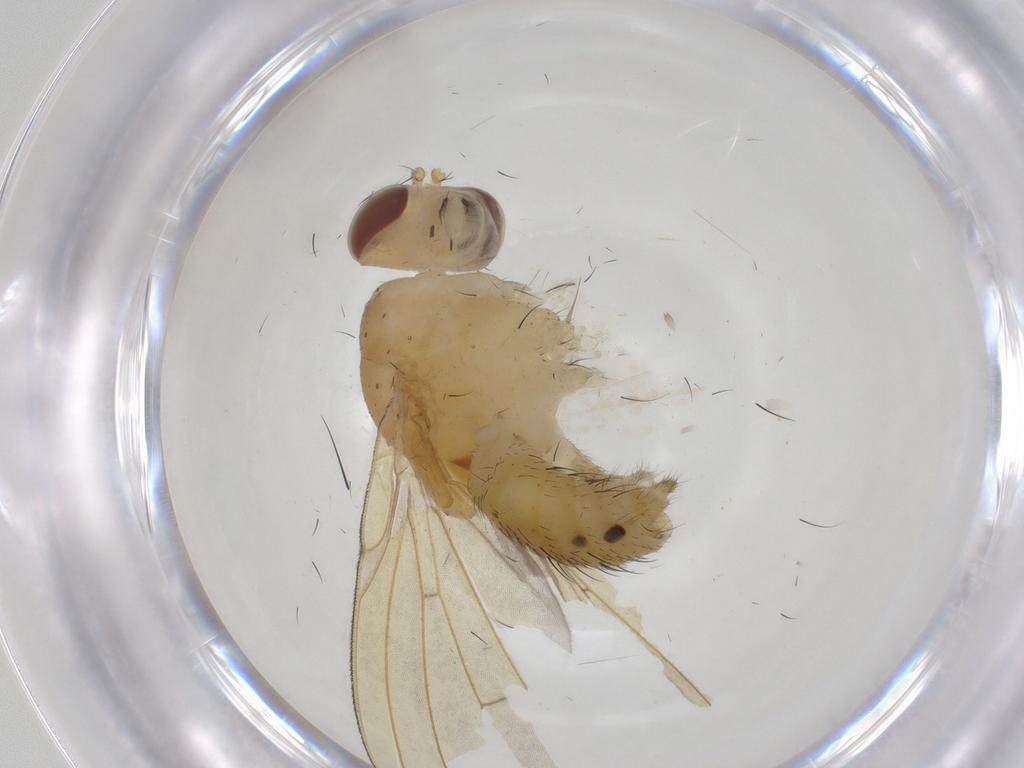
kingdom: Animalia
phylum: Arthropoda
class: Insecta
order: Diptera
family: Agromyzidae
